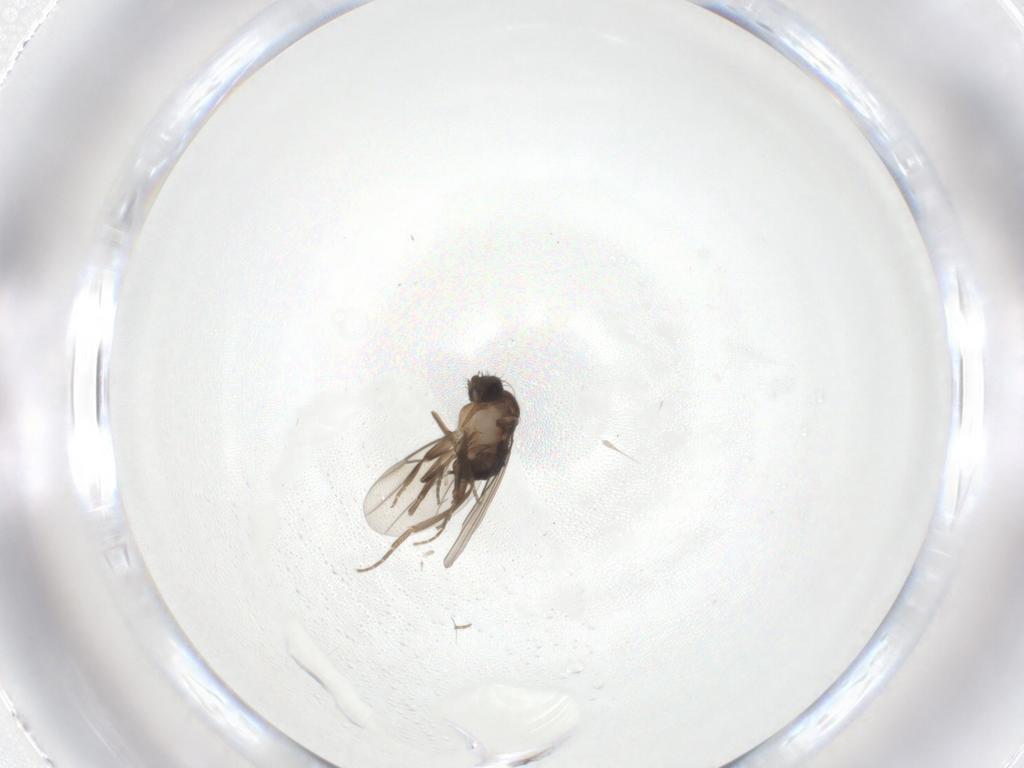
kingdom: Animalia
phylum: Arthropoda
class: Insecta
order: Diptera
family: Phoridae
